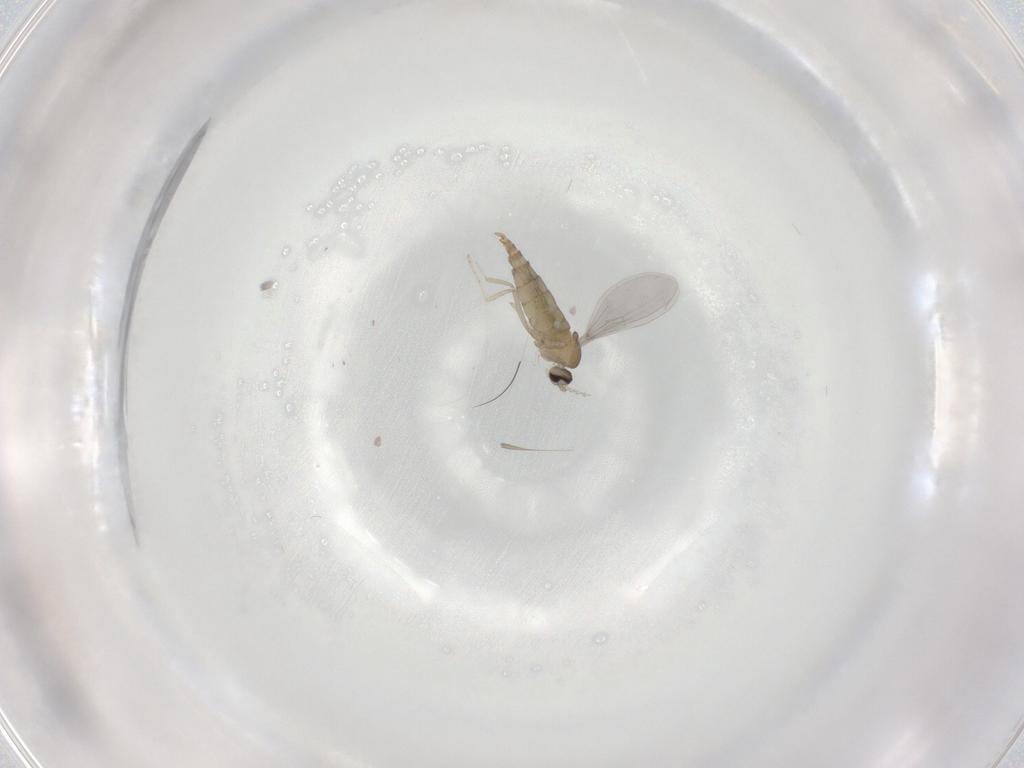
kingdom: Animalia
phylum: Arthropoda
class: Insecta
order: Diptera
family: Cecidomyiidae
